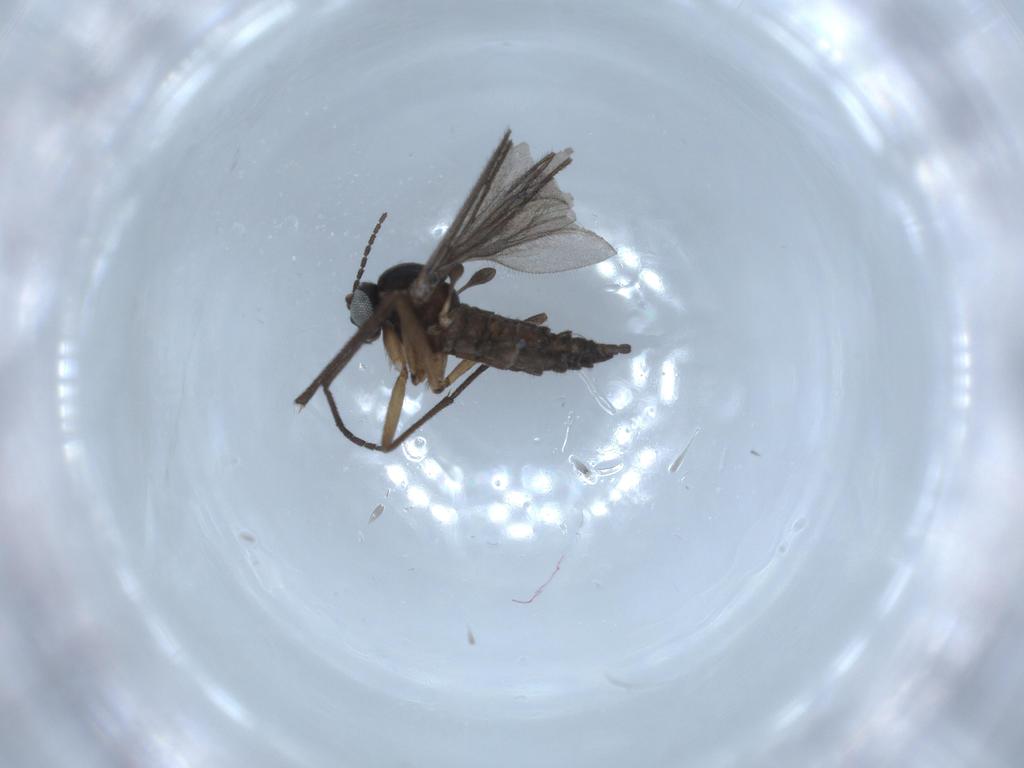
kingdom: Animalia
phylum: Arthropoda
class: Insecta
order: Diptera
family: Sciaridae
